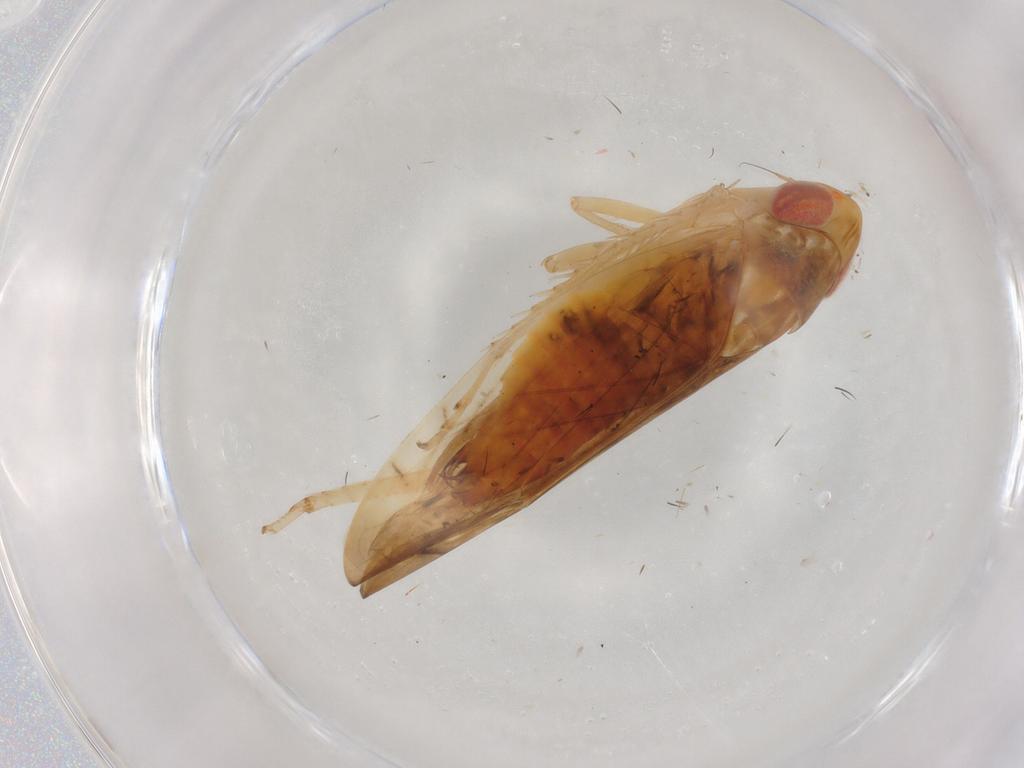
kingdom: Animalia
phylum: Arthropoda
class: Insecta
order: Hemiptera
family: Cicadellidae
